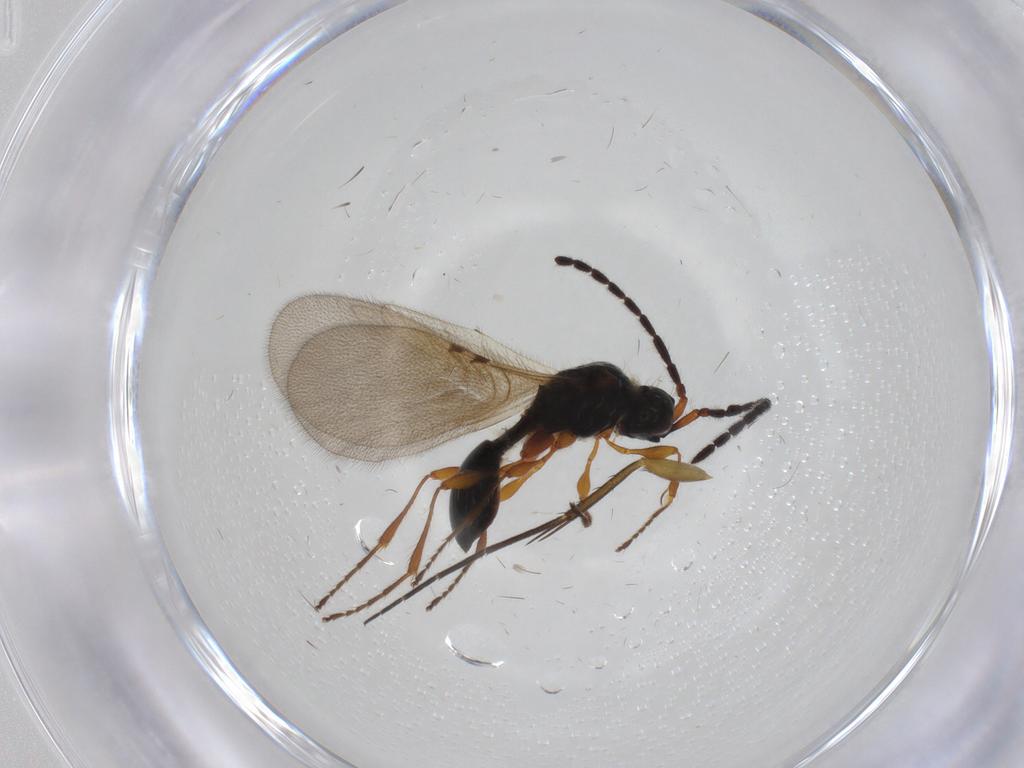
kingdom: Animalia
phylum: Arthropoda
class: Insecta
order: Hymenoptera
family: Diapriidae
